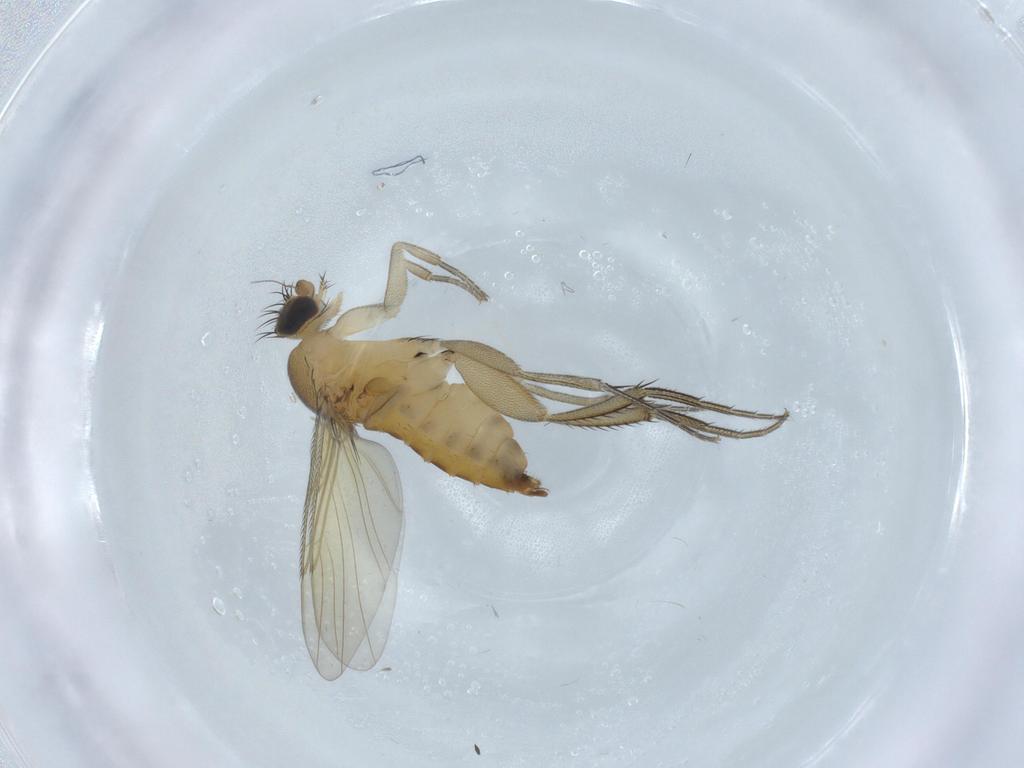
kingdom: Animalia
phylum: Arthropoda
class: Insecta
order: Diptera
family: Phoridae
